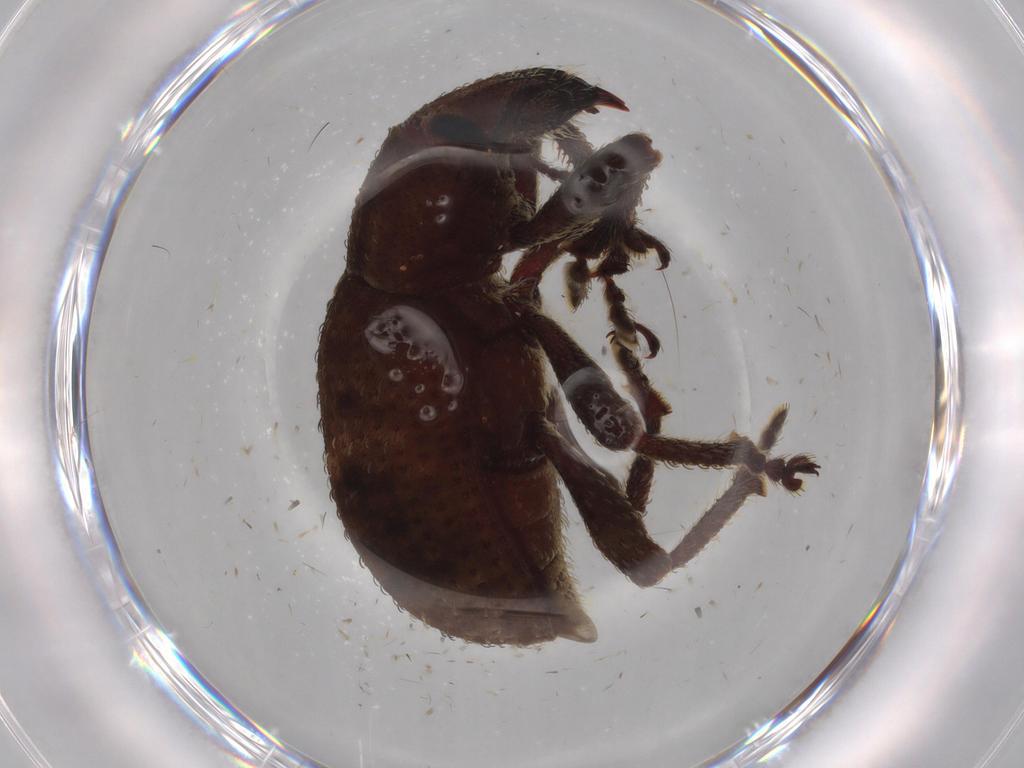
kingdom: Animalia
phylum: Arthropoda
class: Insecta
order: Coleoptera
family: Curculionidae
